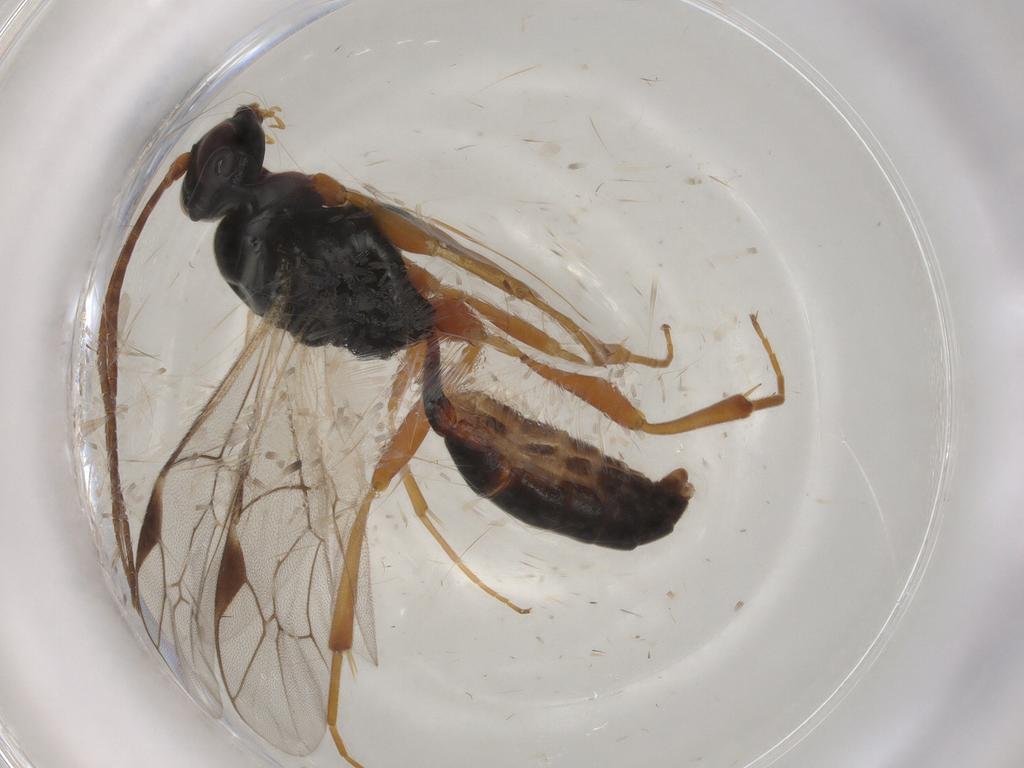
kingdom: Animalia
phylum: Arthropoda
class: Insecta
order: Hymenoptera
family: Ichneumonidae
